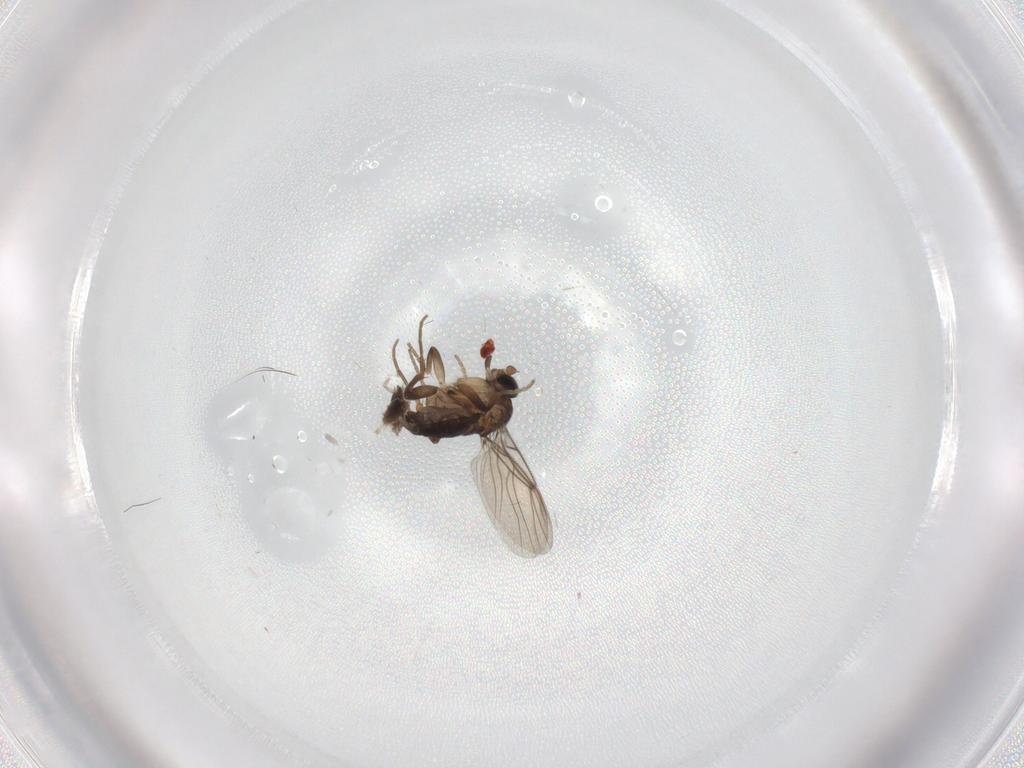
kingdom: Animalia
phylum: Arthropoda
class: Insecta
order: Diptera
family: Phoridae
